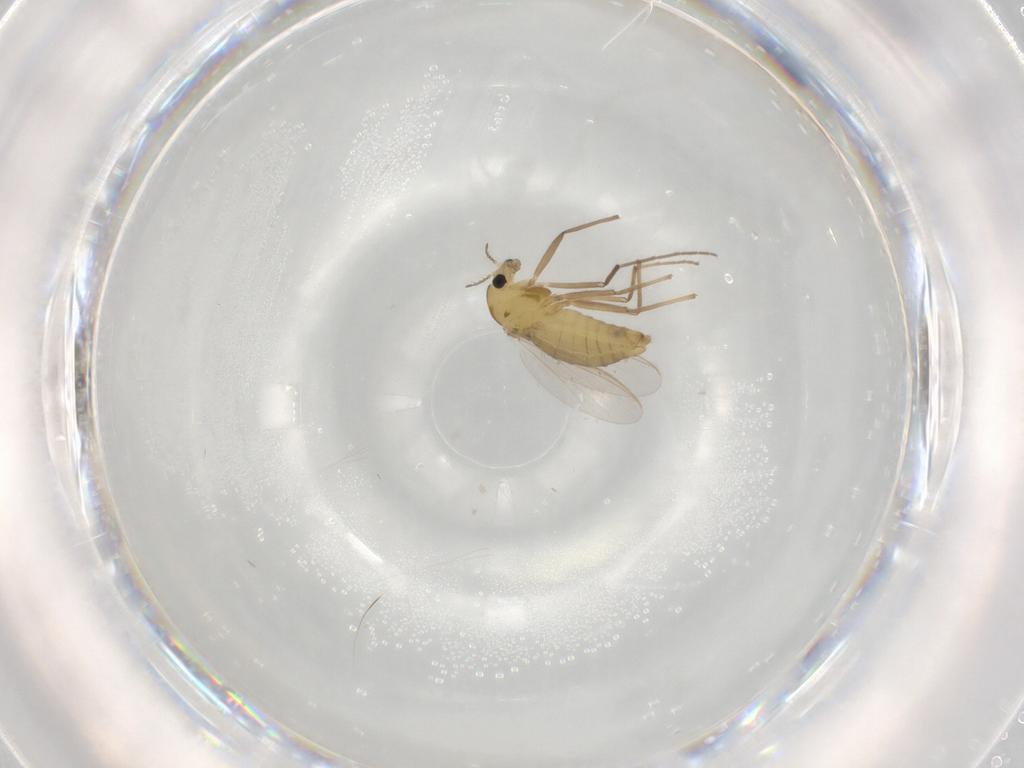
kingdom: Animalia
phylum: Arthropoda
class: Insecta
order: Diptera
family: Chironomidae
